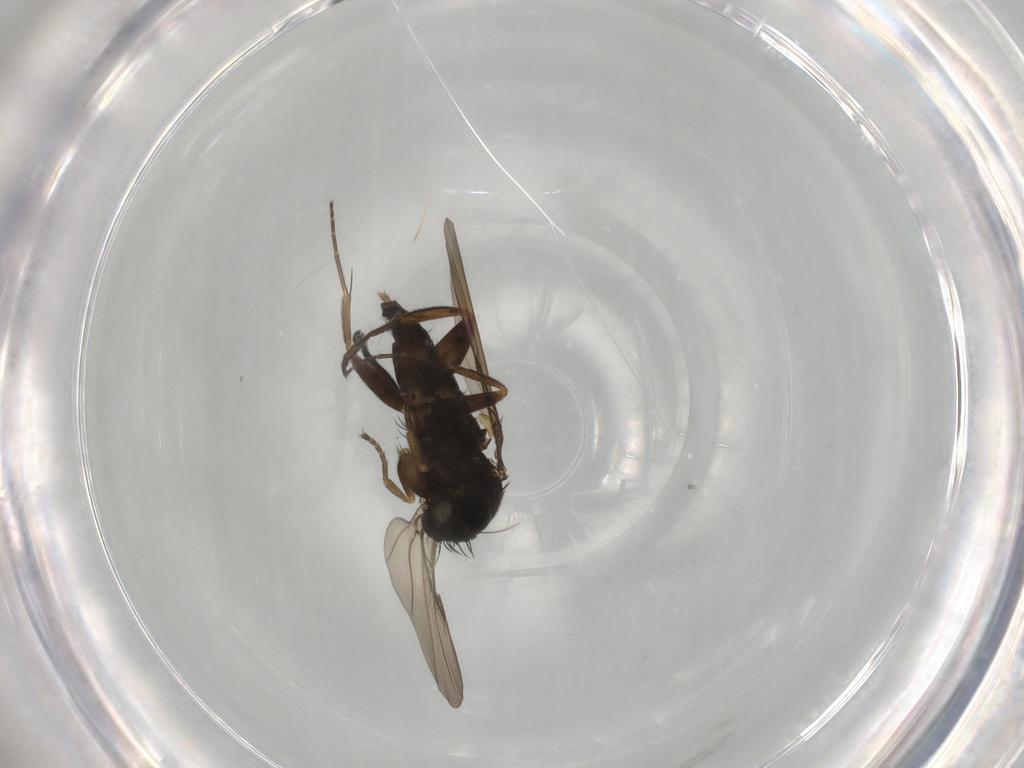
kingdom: Animalia
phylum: Arthropoda
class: Insecta
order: Diptera
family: Phoridae
